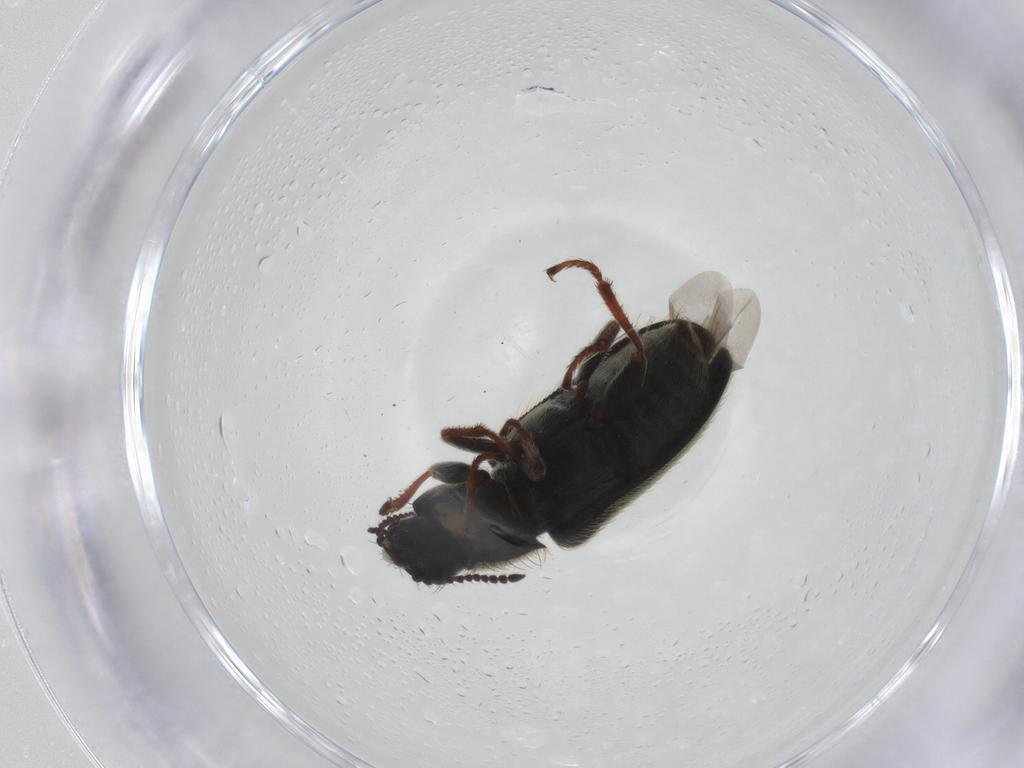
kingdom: Animalia
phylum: Arthropoda
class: Insecta
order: Coleoptera
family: Melyridae
